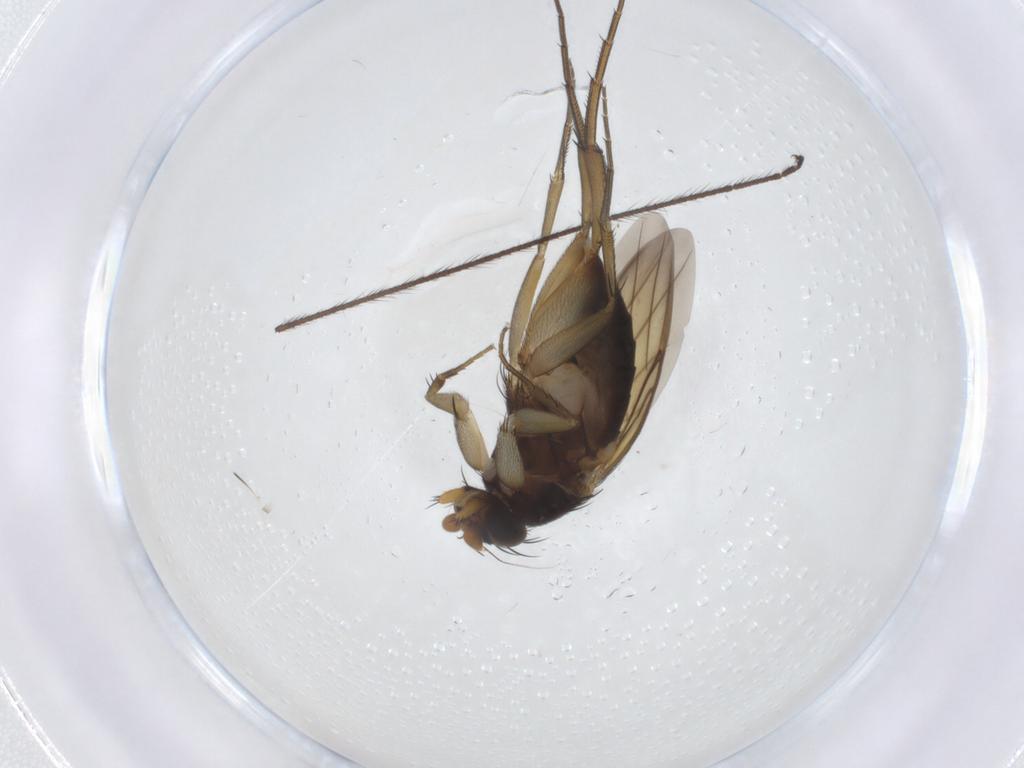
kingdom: Animalia
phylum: Arthropoda
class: Insecta
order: Diptera
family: Phoridae
